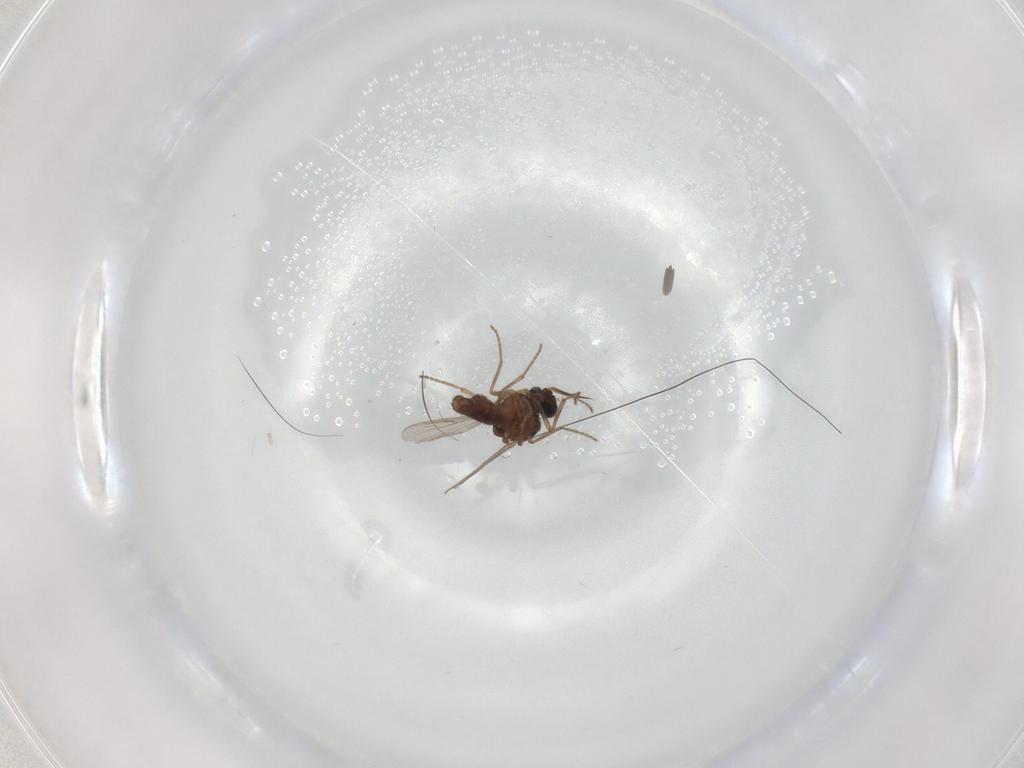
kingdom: Animalia
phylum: Arthropoda
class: Insecta
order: Diptera
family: Ceratopogonidae
